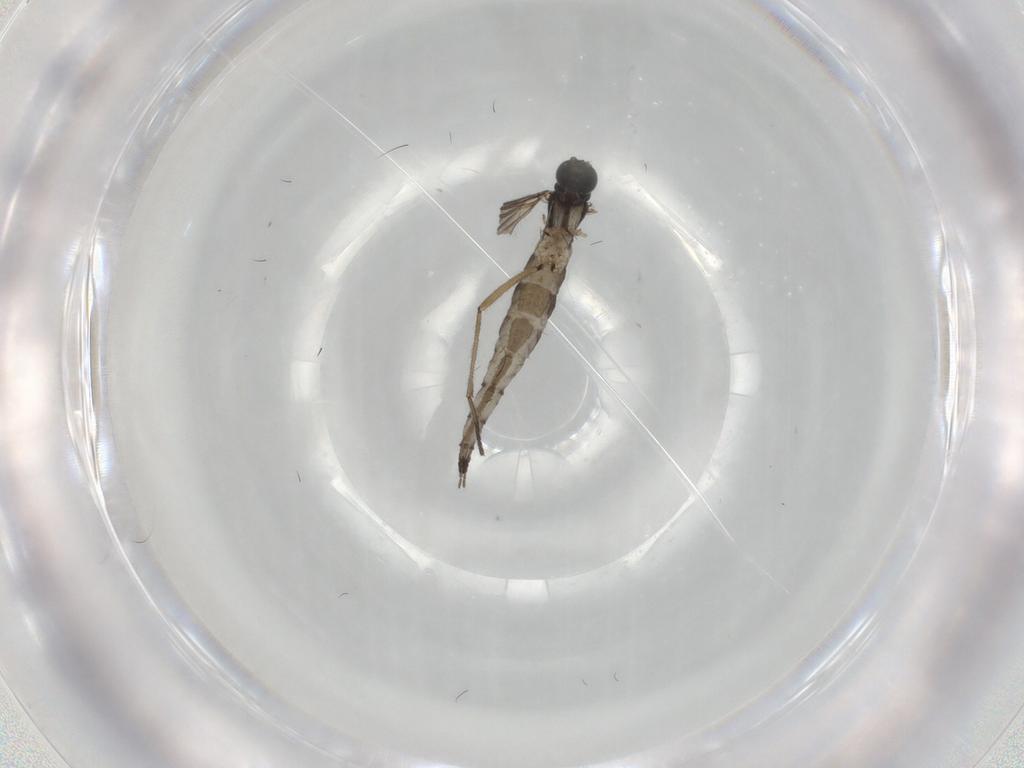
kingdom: Animalia
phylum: Arthropoda
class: Insecta
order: Diptera
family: Sciaridae
